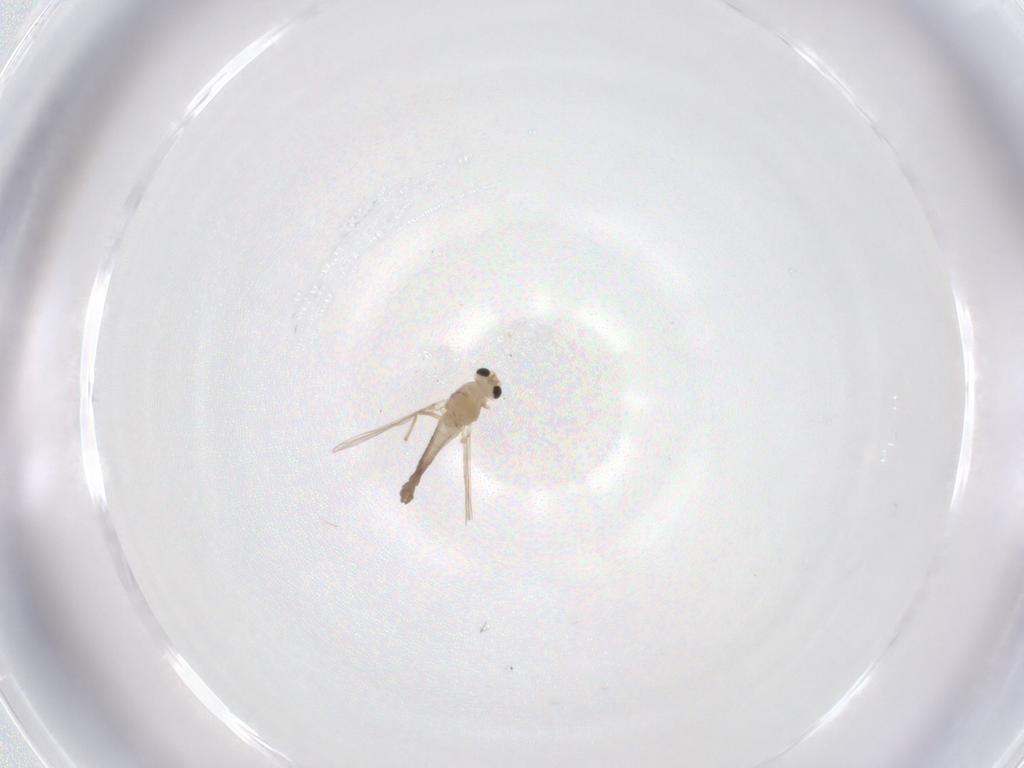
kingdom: Animalia
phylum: Arthropoda
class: Insecta
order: Diptera
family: Chironomidae
